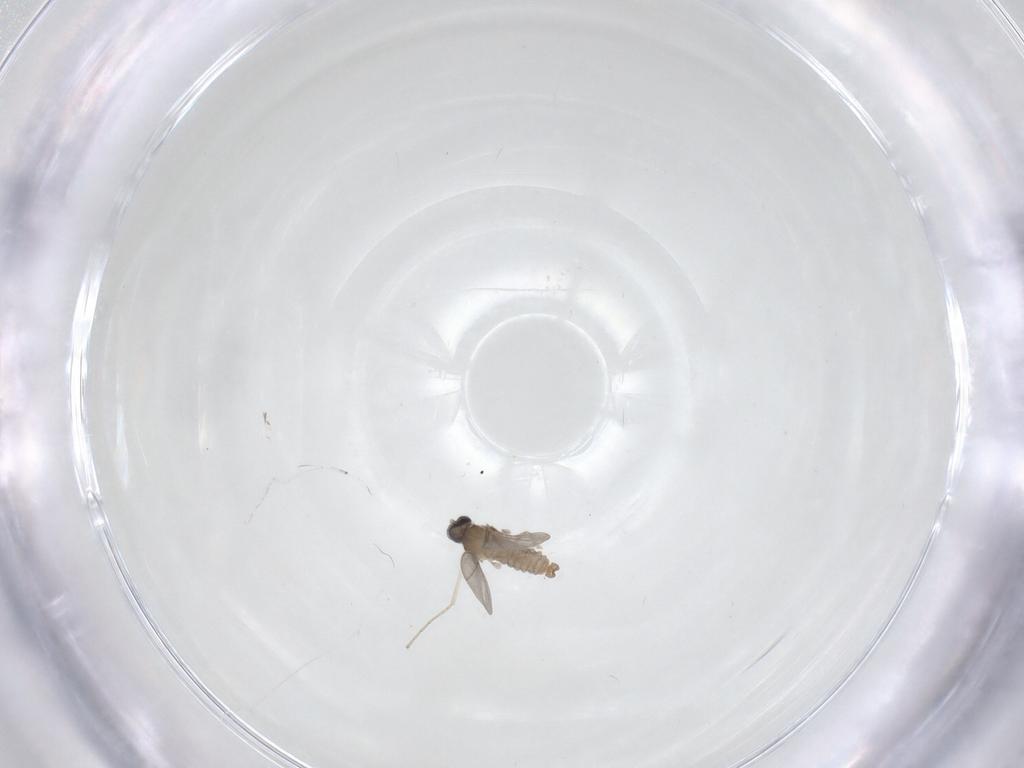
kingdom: Animalia
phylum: Arthropoda
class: Insecta
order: Diptera
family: Cecidomyiidae
